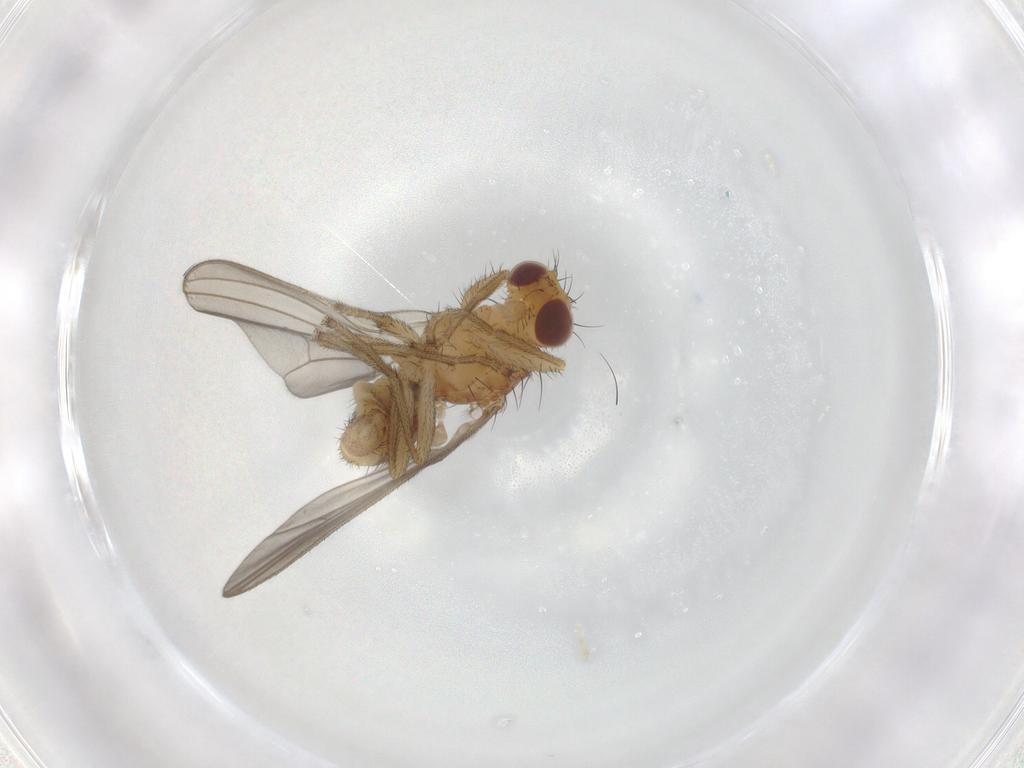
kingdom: Animalia
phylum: Arthropoda
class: Insecta
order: Diptera
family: Natalimyzidae
